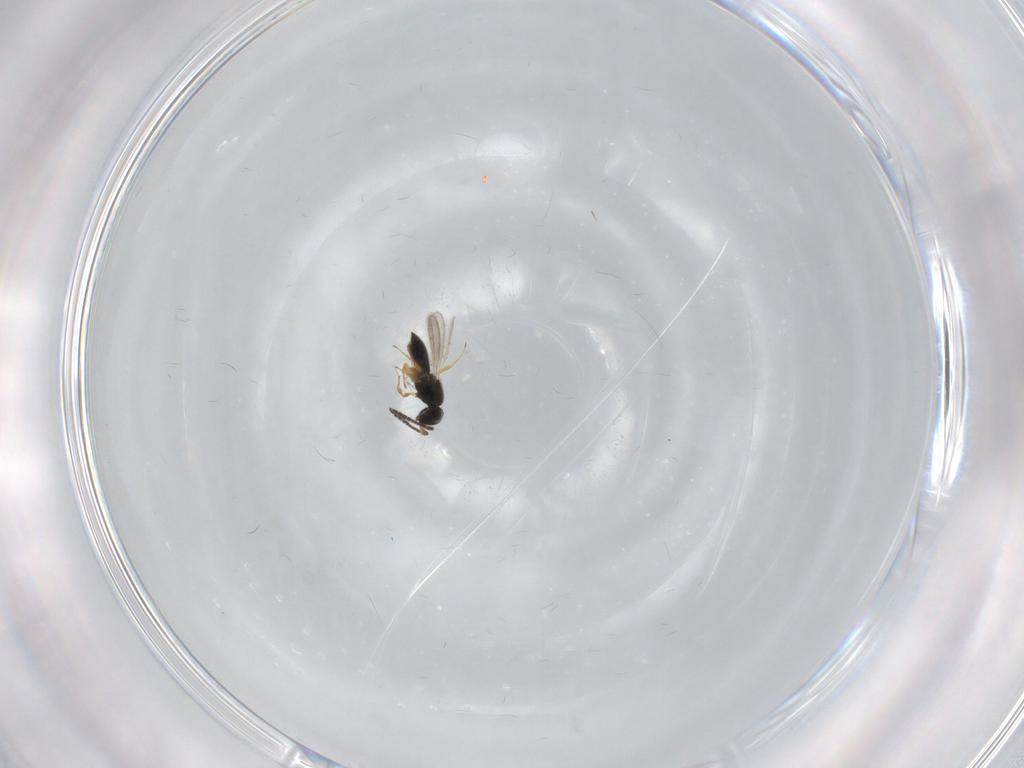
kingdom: Animalia
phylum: Arthropoda
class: Insecta
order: Hymenoptera
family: Scelionidae
